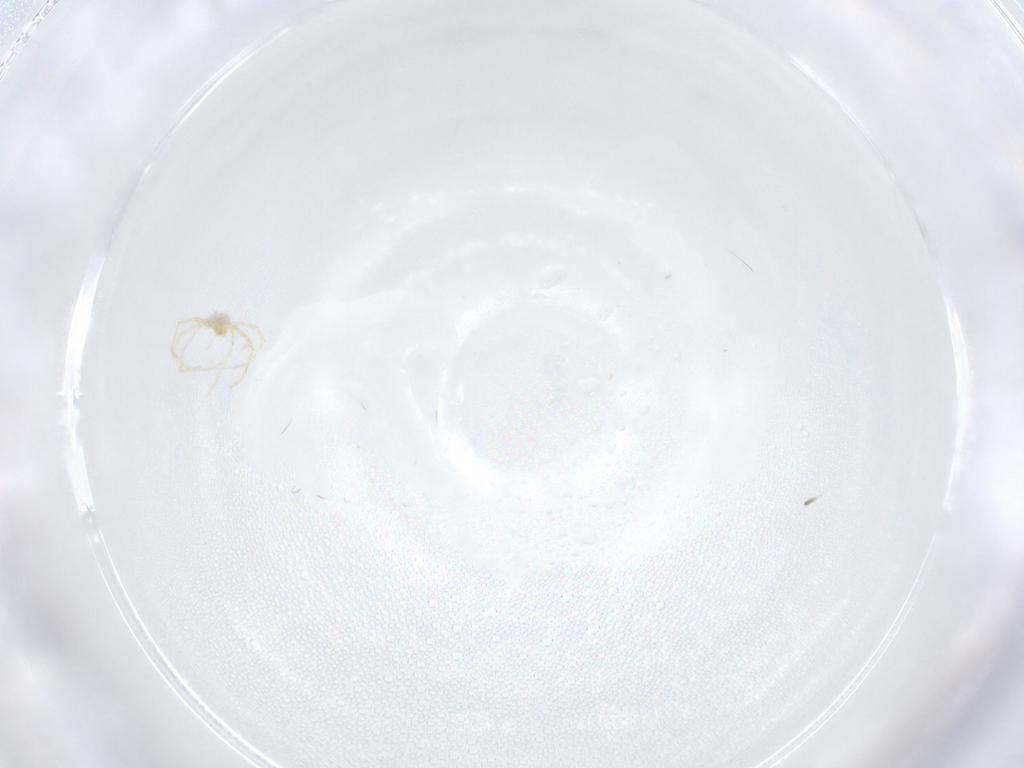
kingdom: Animalia
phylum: Arthropoda
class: Arachnida
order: Trombidiformes
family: Erythraeidae
